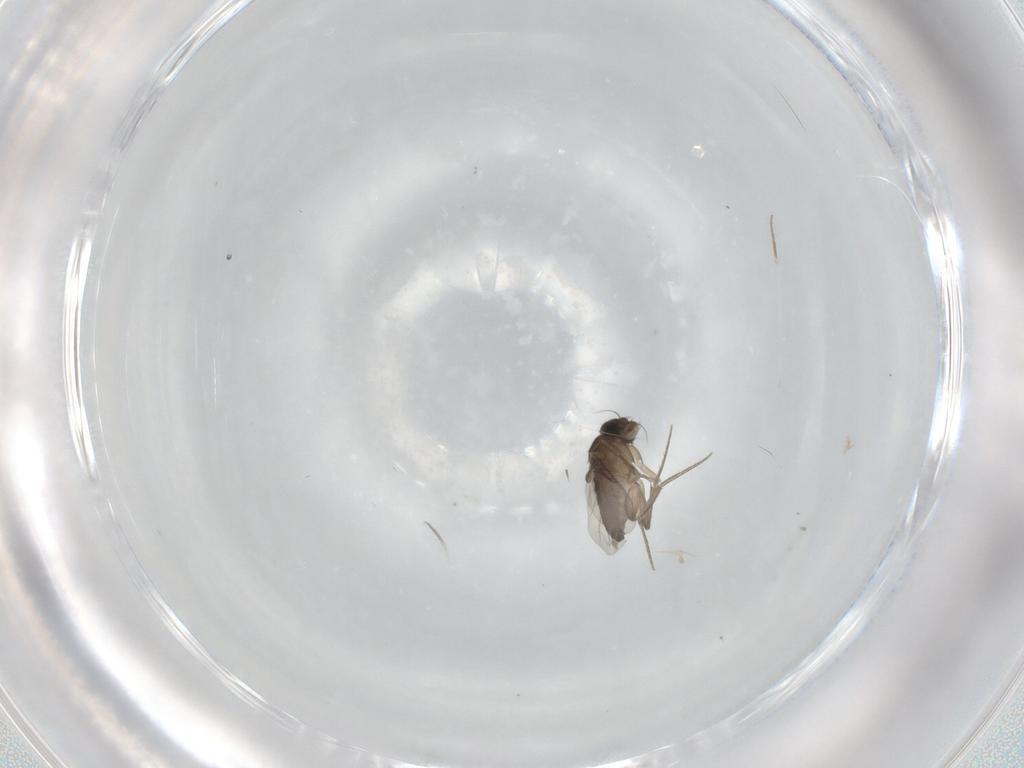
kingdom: Animalia
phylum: Arthropoda
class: Insecta
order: Diptera
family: Phoridae
